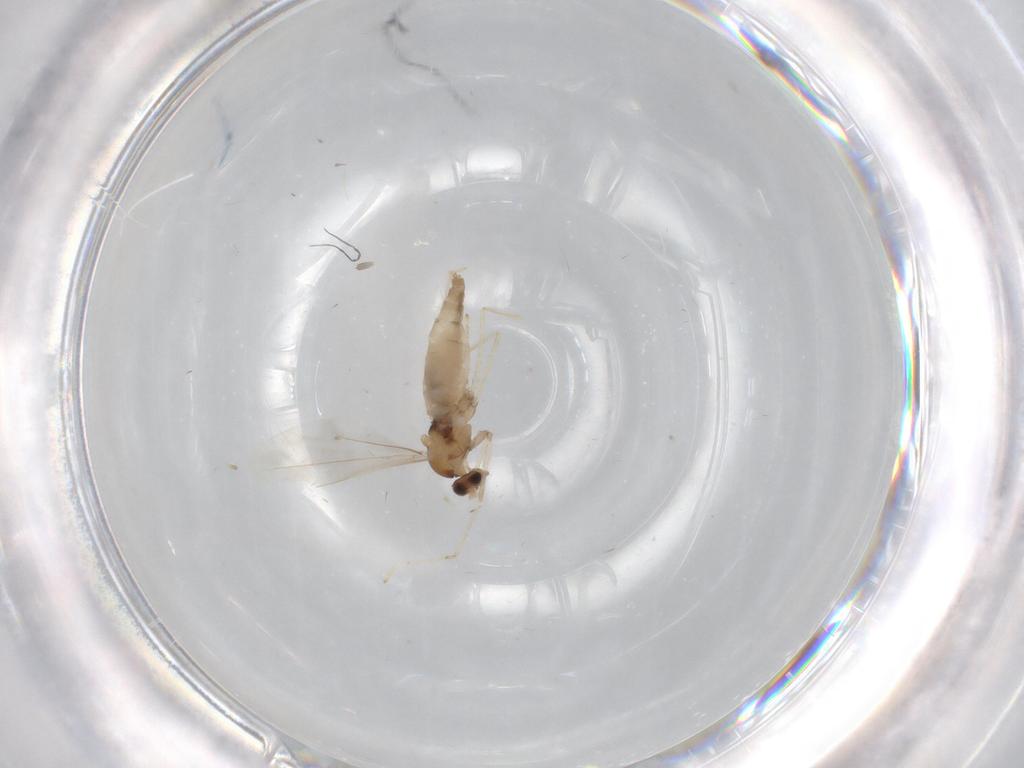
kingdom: Animalia
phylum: Arthropoda
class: Insecta
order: Diptera
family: Cecidomyiidae
